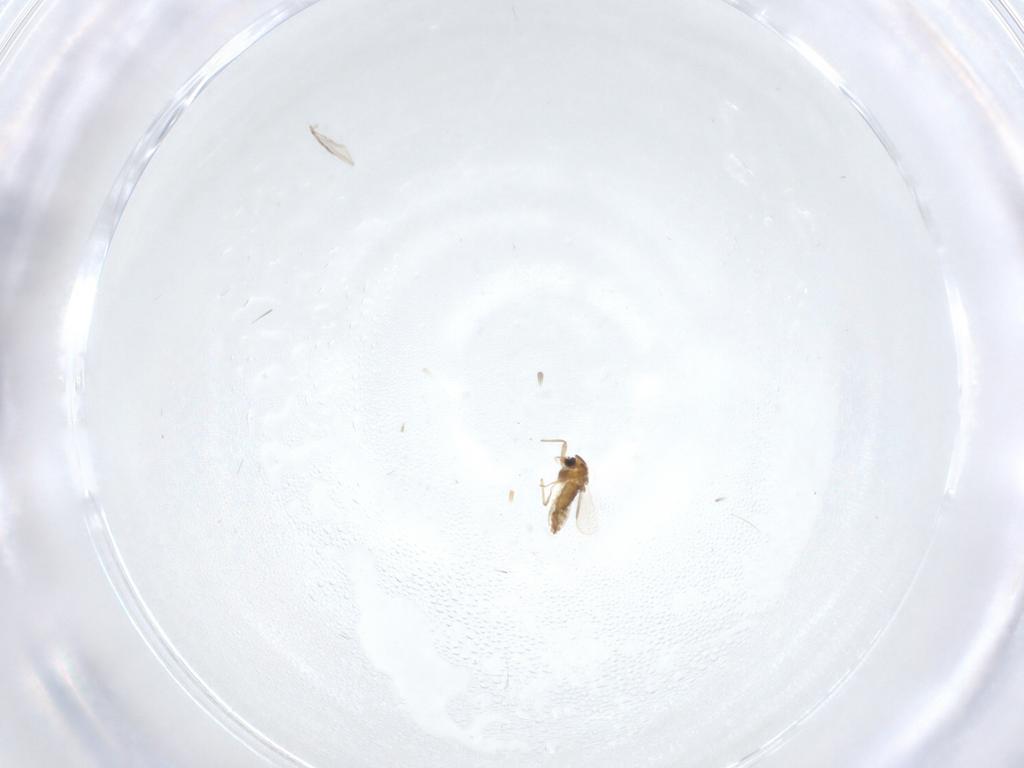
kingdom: Animalia
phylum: Arthropoda
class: Insecta
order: Diptera
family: Chironomidae
